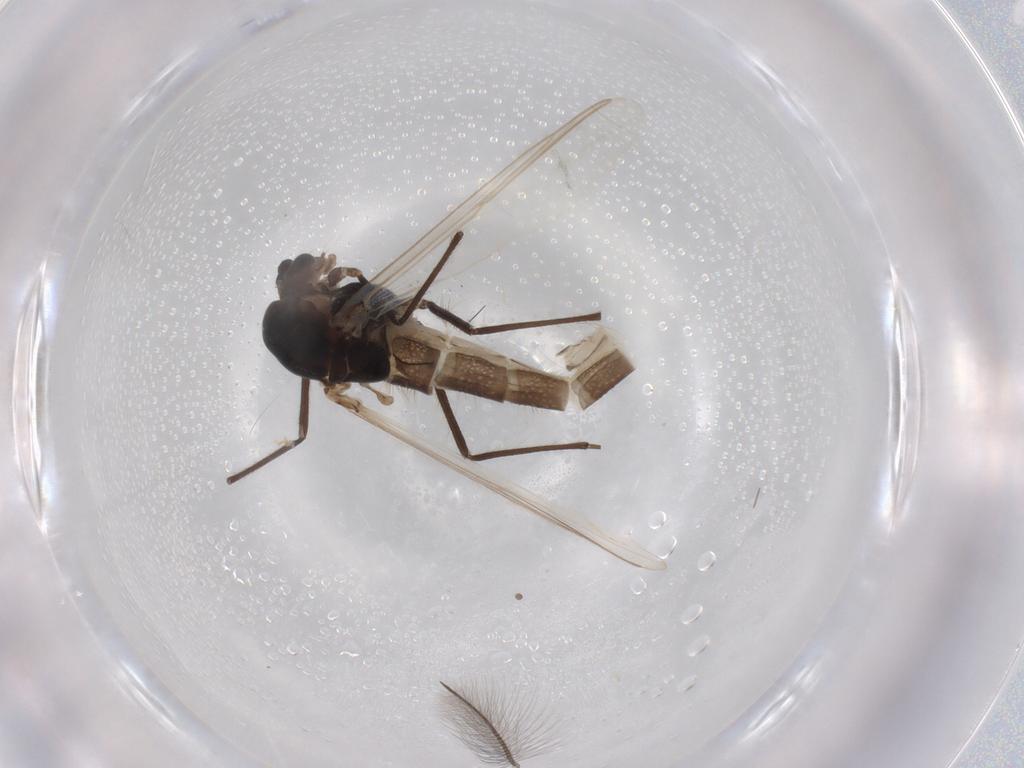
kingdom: Animalia
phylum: Arthropoda
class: Insecta
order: Diptera
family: Chironomidae
